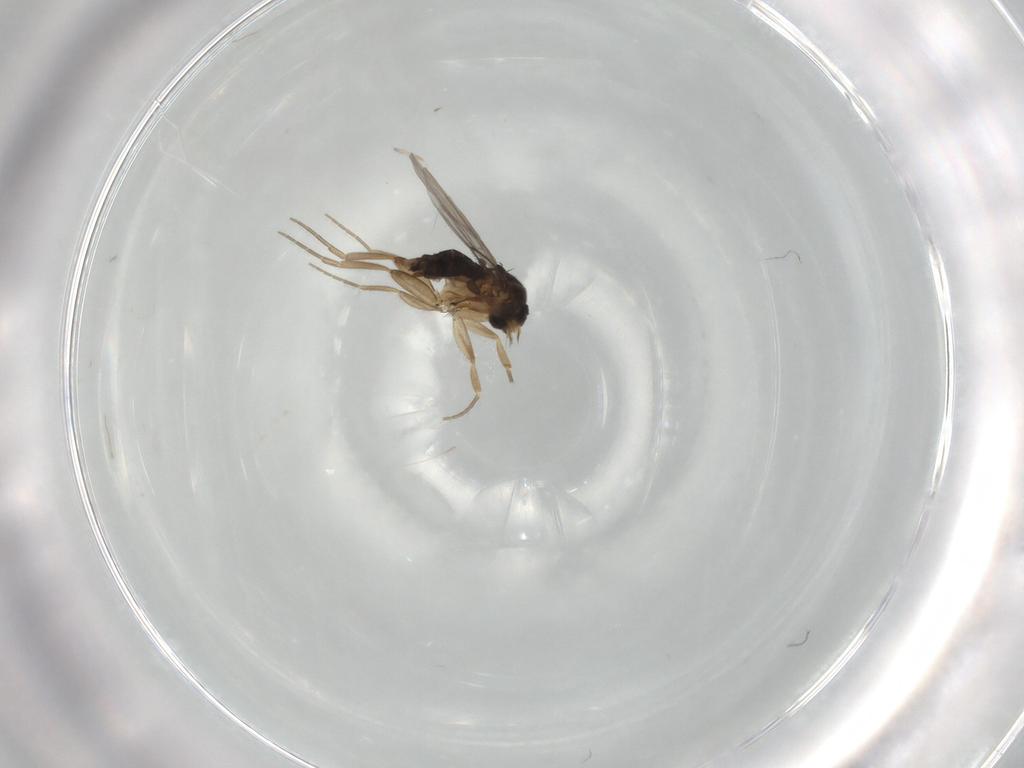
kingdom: Animalia
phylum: Arthropoda
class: Insecta
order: Diptera
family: Phoridae
